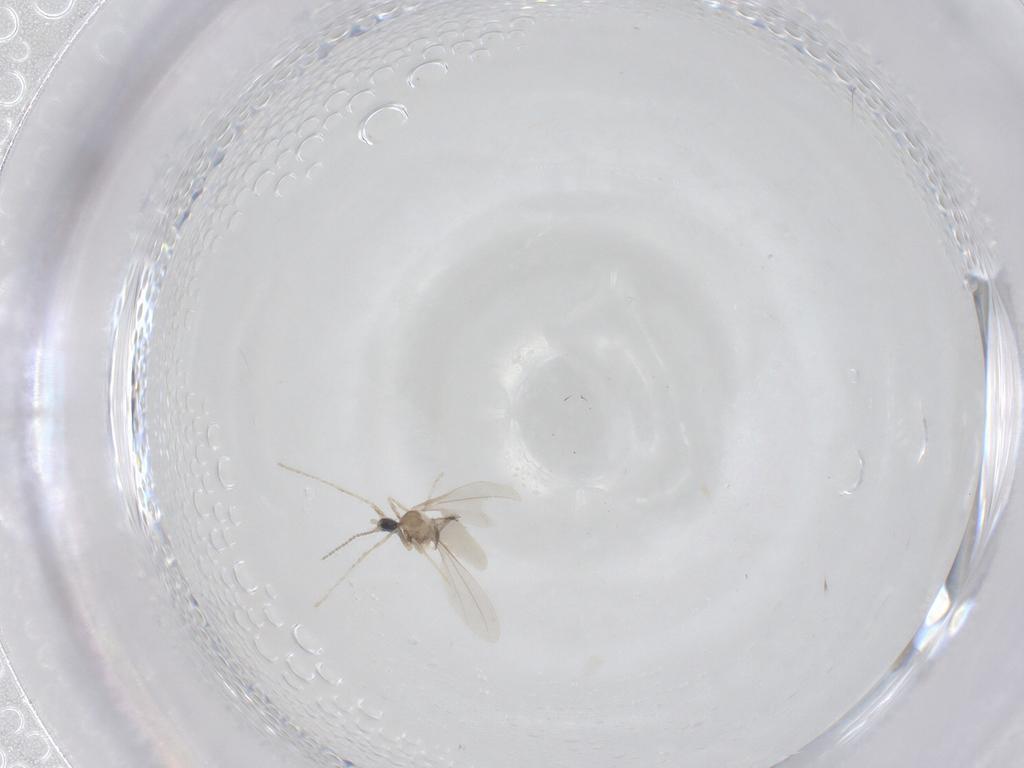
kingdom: Animalia
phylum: Arthropoda
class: Insecta
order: Diptera
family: Cecidomyiidae
